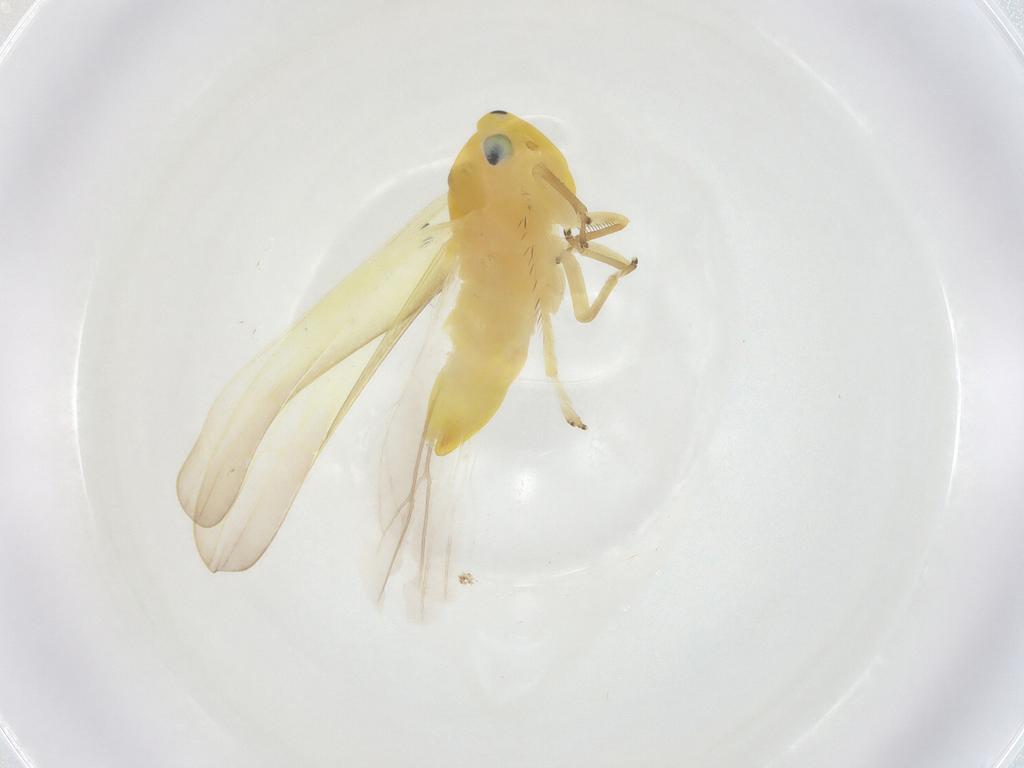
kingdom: Animalia
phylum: Arthropoda
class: Insecta
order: Hemiptera
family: Cicadellidae
